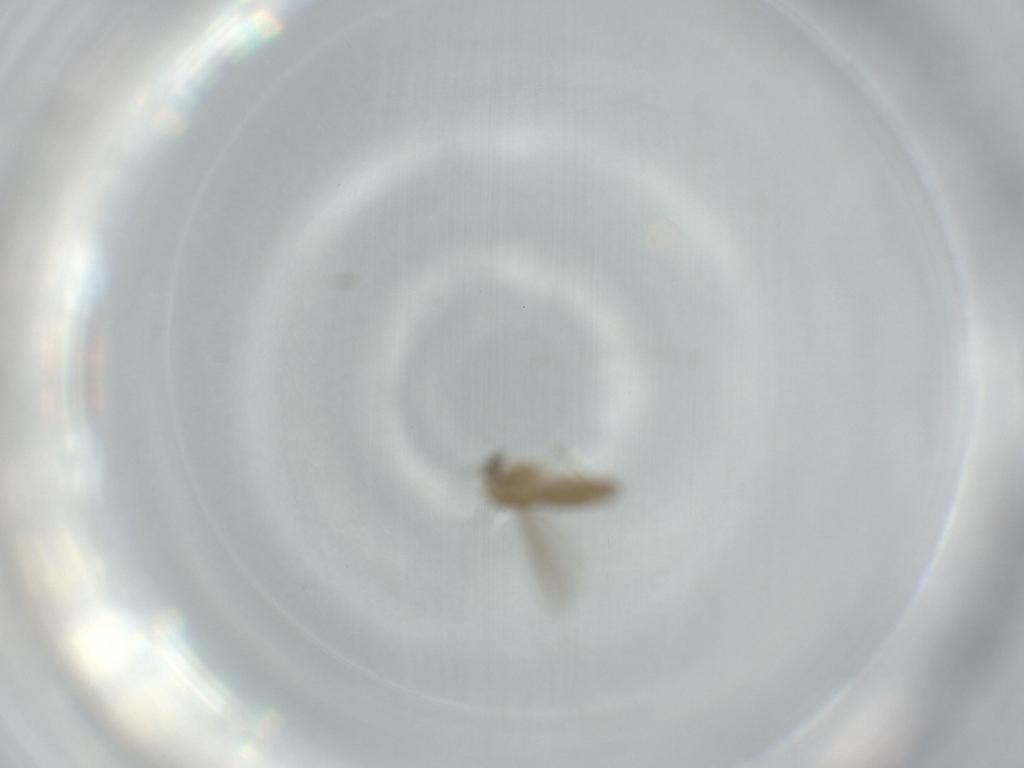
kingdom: Animalia
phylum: Arthropoda
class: Insecta
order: Diptera
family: Chironomidae
